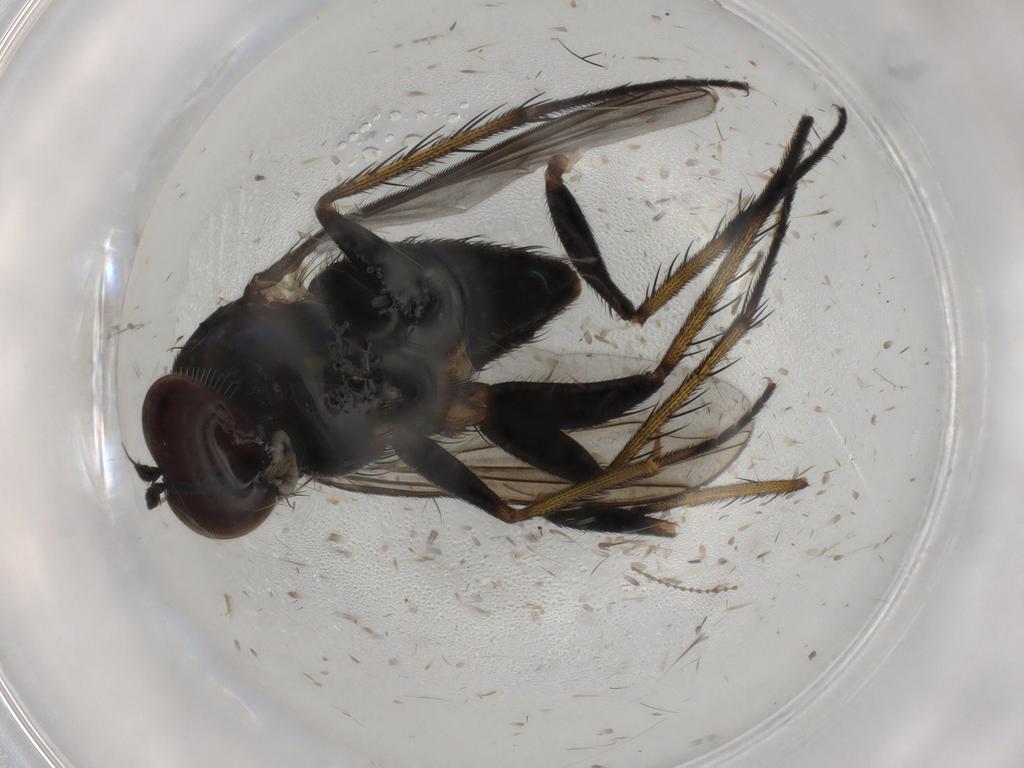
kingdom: Animalia
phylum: Arthropoda
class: Insecta
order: Diptera
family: Dolichopodidae
